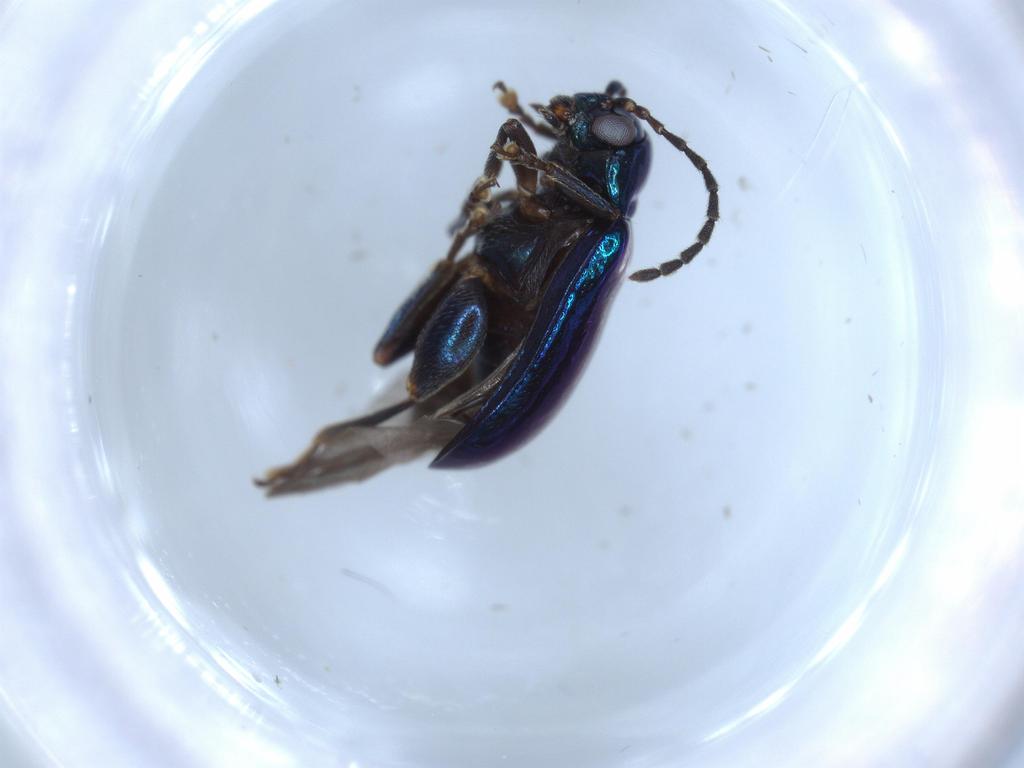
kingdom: Animalia
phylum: Arthropoda
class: Insecta
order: Coleoptera
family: Chrysomelidae
